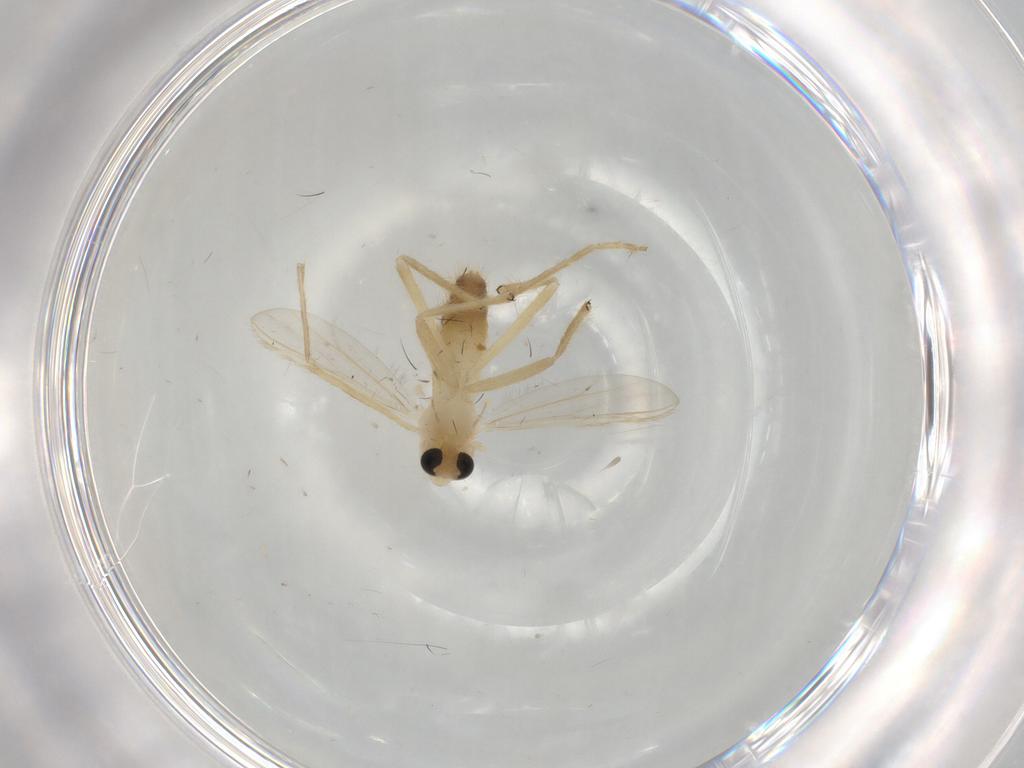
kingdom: Animalia
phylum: Arthropoda
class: Insecta
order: Diptera
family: Chironomidae
